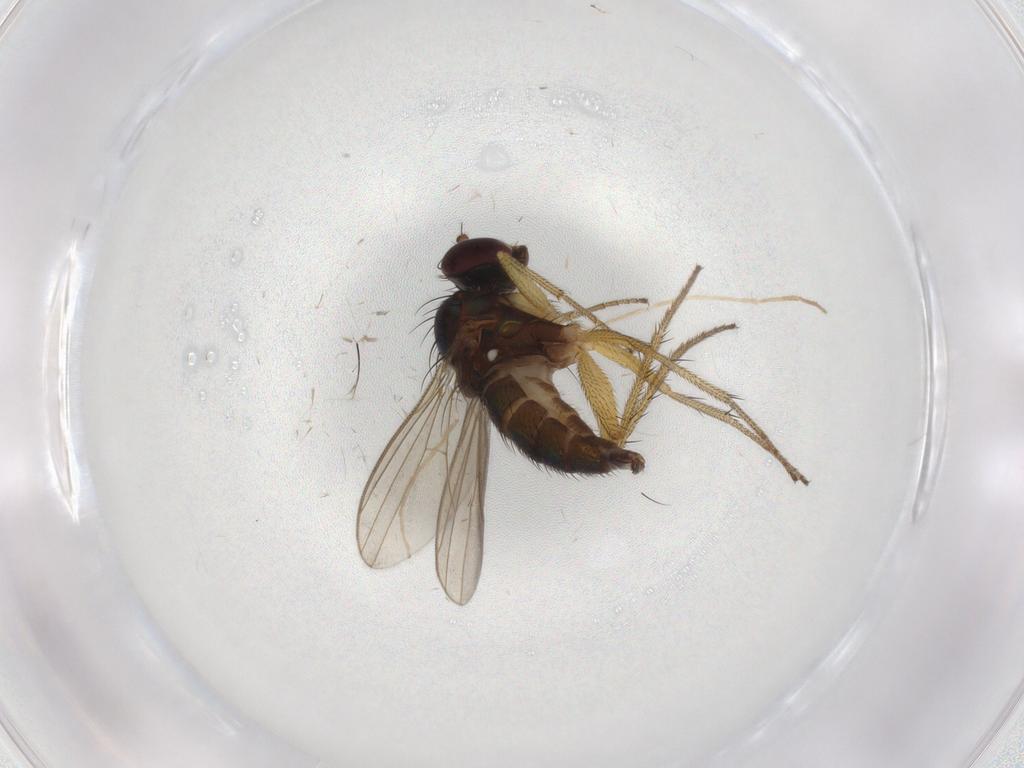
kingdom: Animalia
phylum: Arthropoda
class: Insecta
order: Diptera
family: Dolichopodidae
